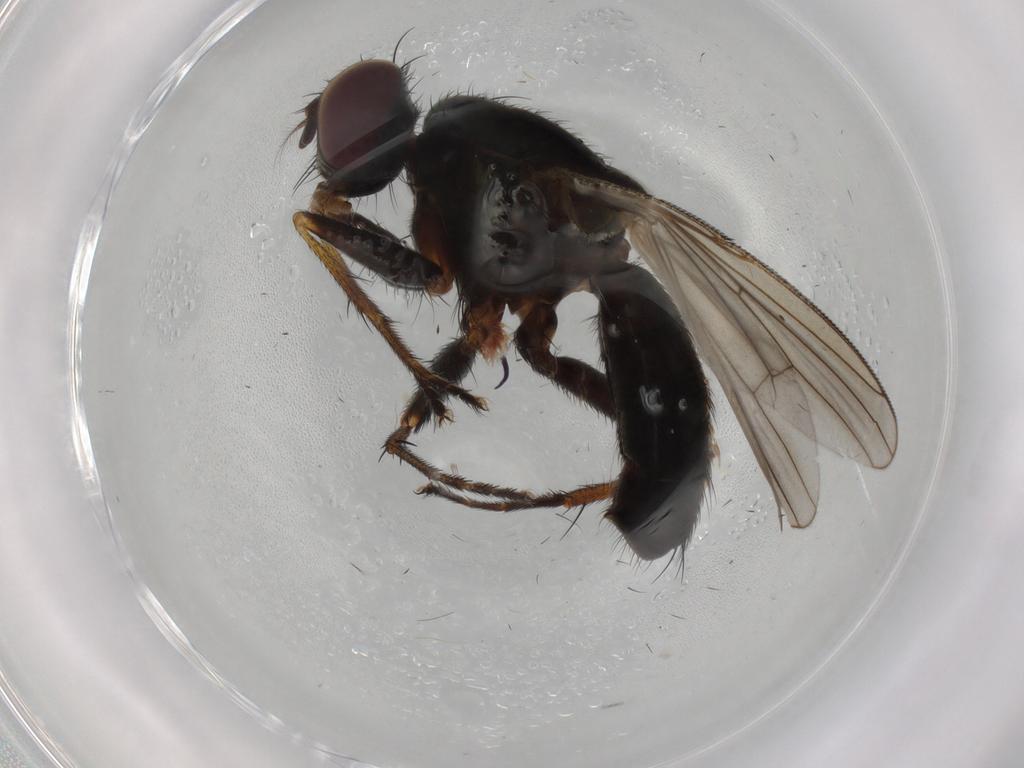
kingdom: Animalia
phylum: Arthropoda
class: Insecta
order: Diptera
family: Muscidae
